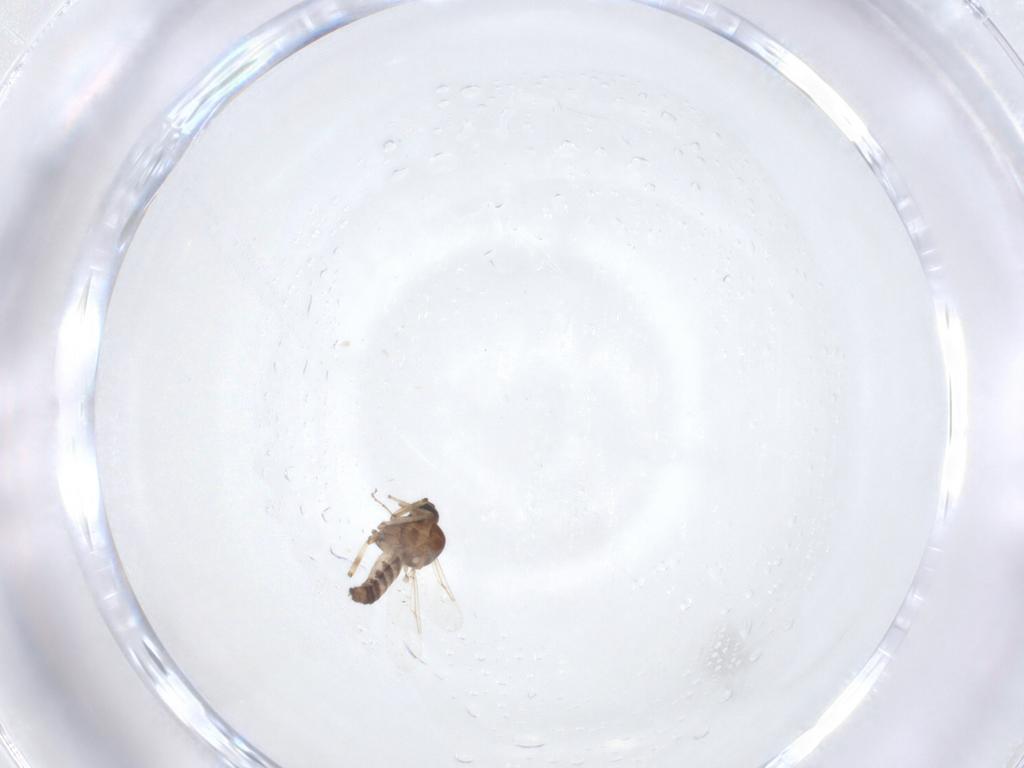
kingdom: Animalia
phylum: Arthropoda
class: Insecta
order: Diptera
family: Ceratopogonidae
